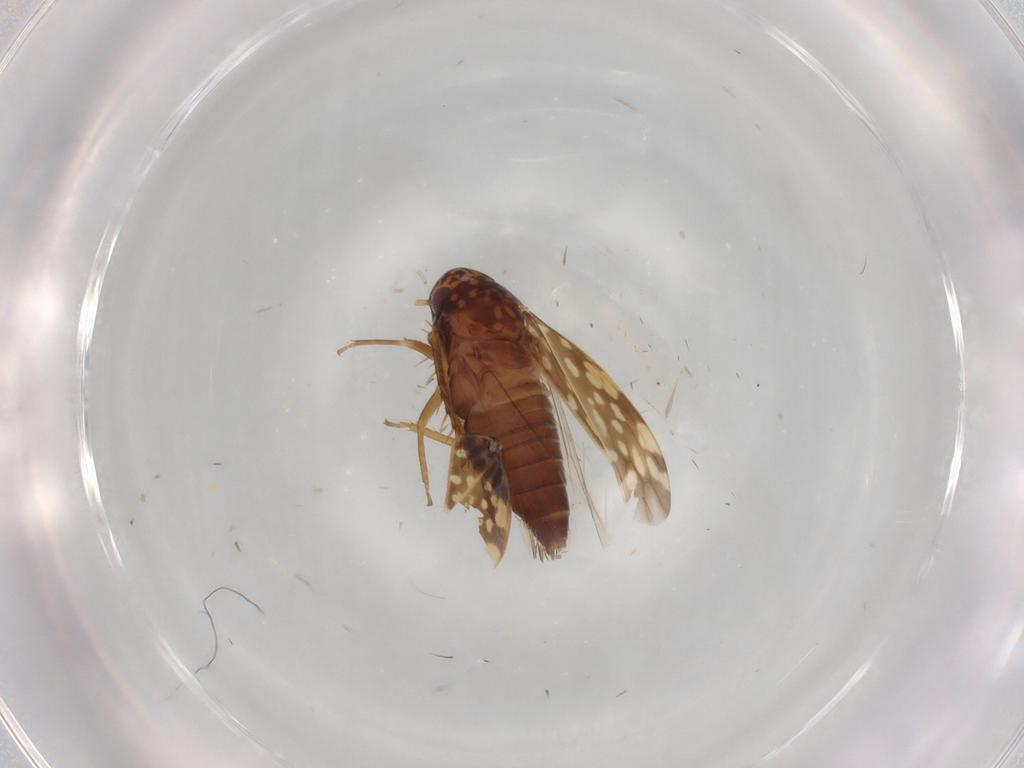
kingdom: Animalia
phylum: Arthropoda
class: Insecta
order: Hemiptera
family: Cicadellidae
